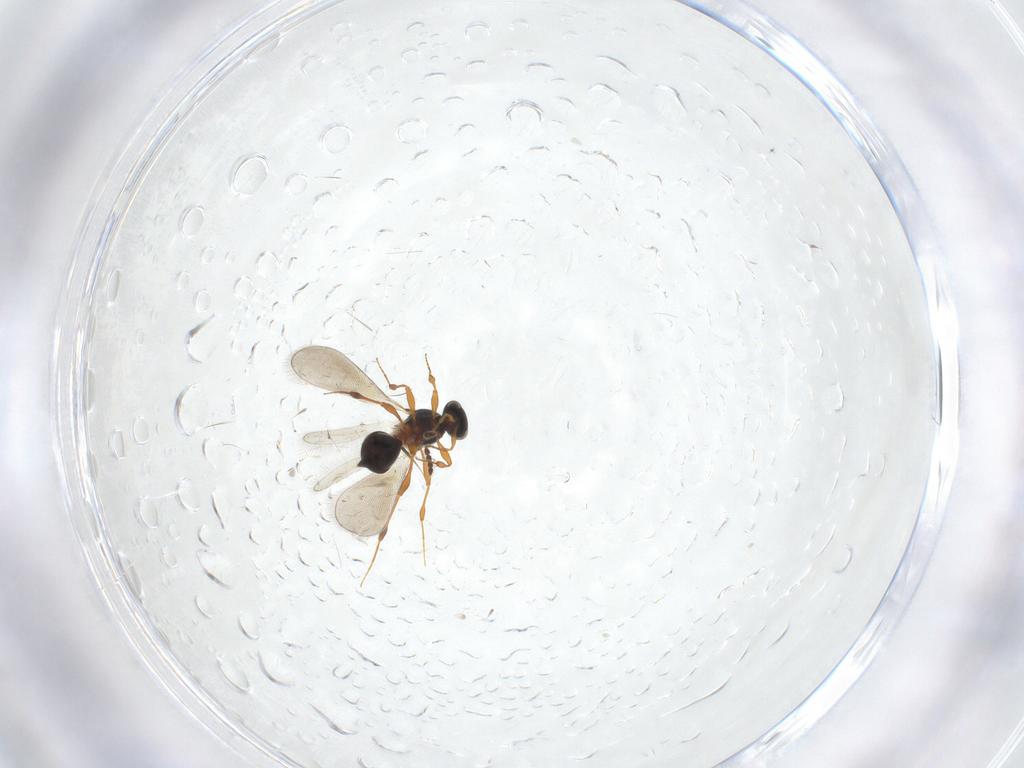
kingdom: Animalia
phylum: Arthropoda
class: Insecta
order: Hymenoptera
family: Platygastridae
